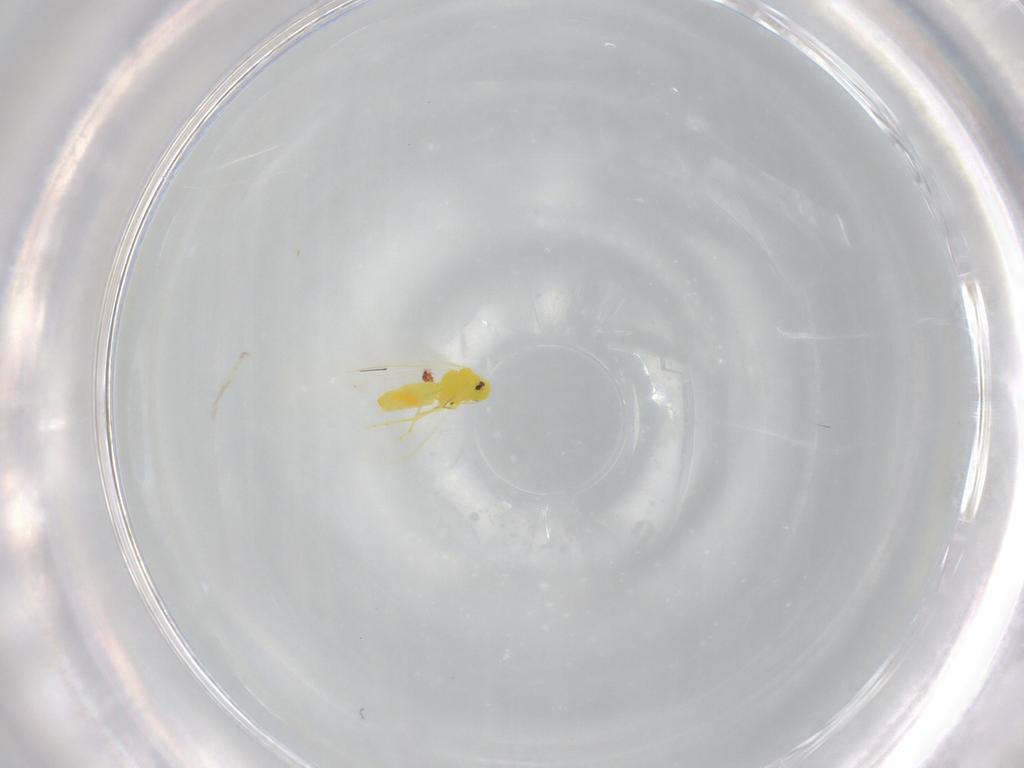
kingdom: Animalia
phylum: Arthropoda
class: Insecta
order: Hemiptera
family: Aleyrodidae
